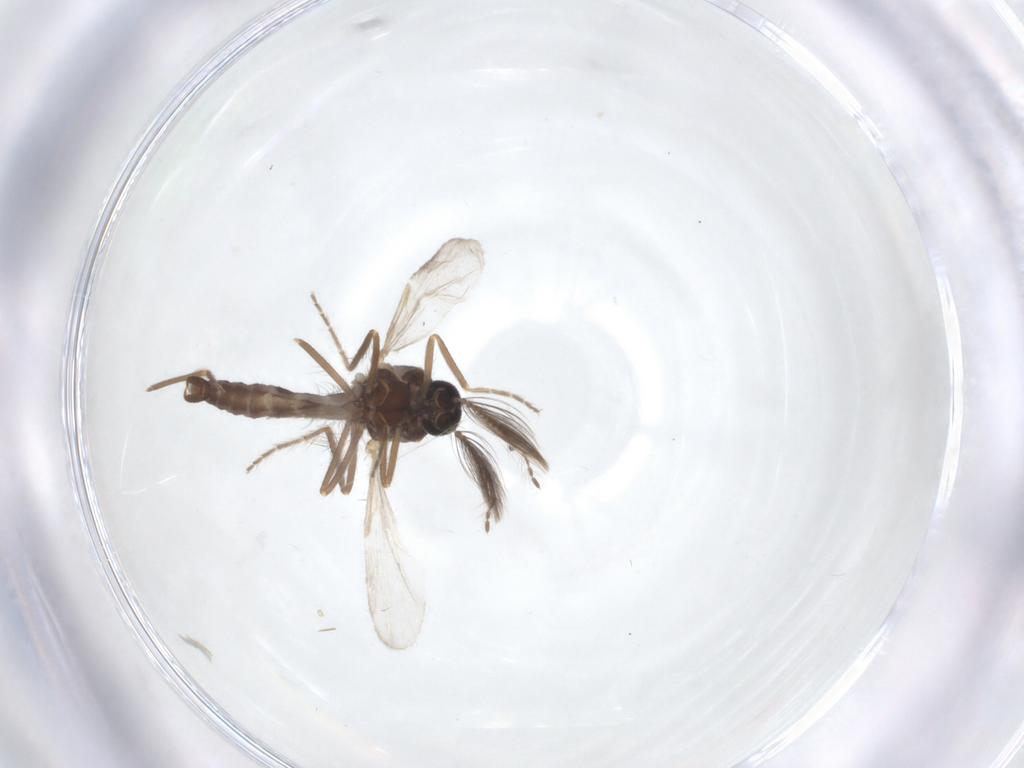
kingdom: Animalia
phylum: Arthropoda
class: Insecta
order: Diptera
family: Ceratopogonidae
